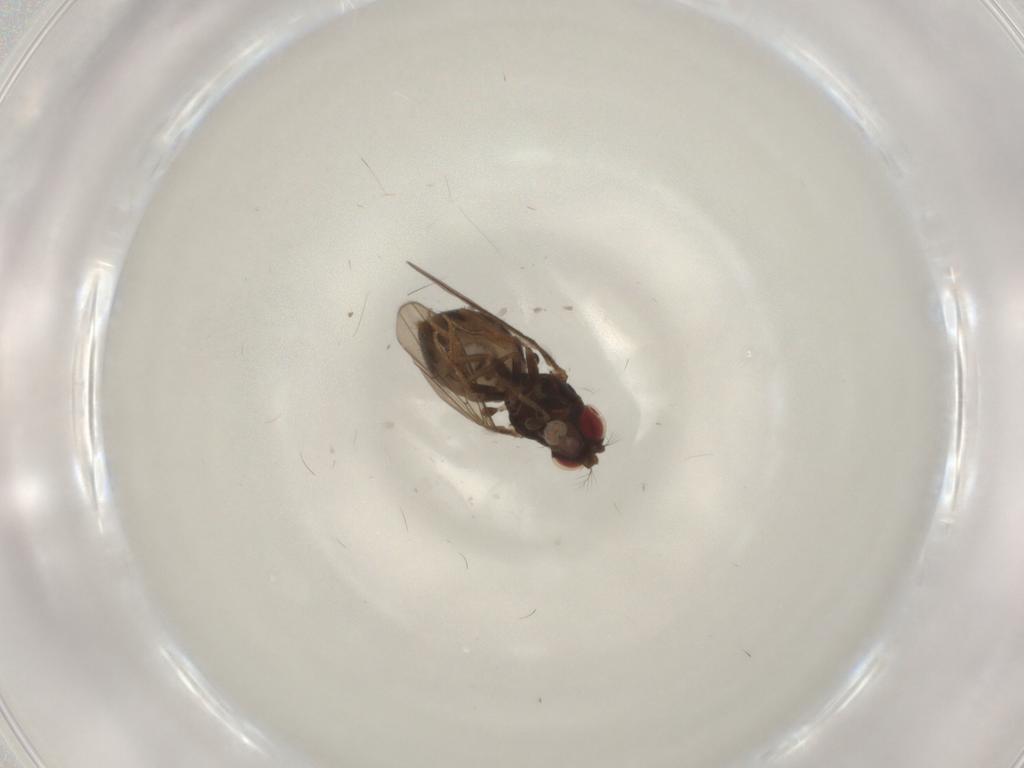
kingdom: Animalia
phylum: Arthropoda
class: Insecta
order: Diptera
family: Drosophilidae
